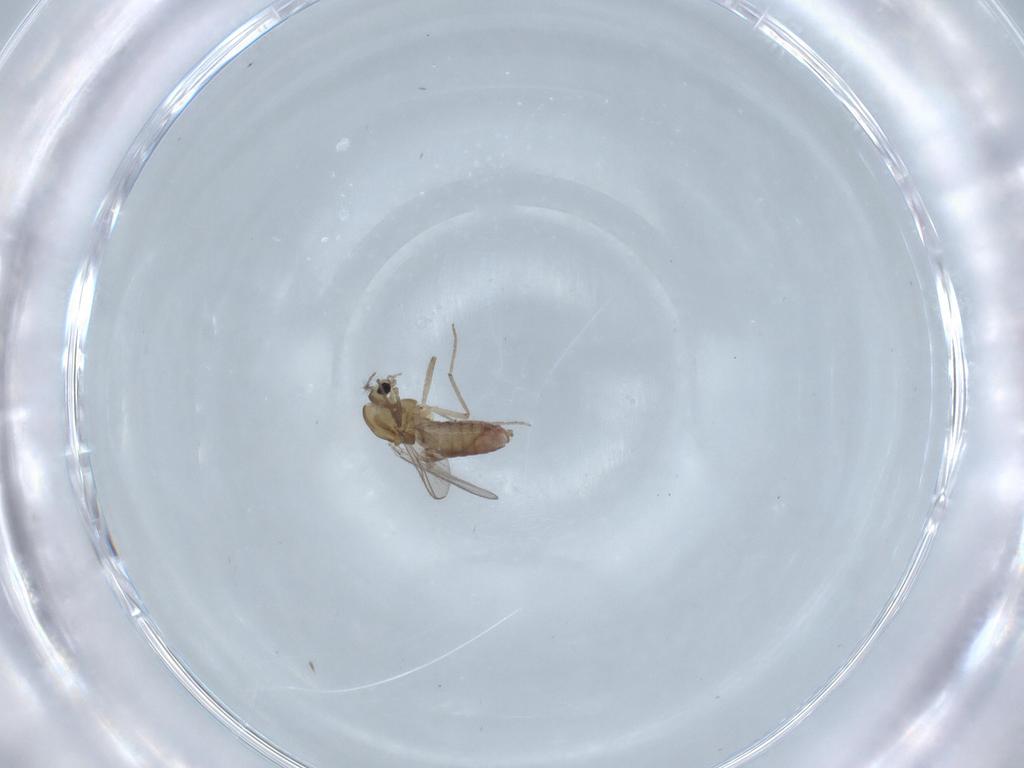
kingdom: Animalia
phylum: Arthropoda
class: Insecta
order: Diptera
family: Chironomidae
